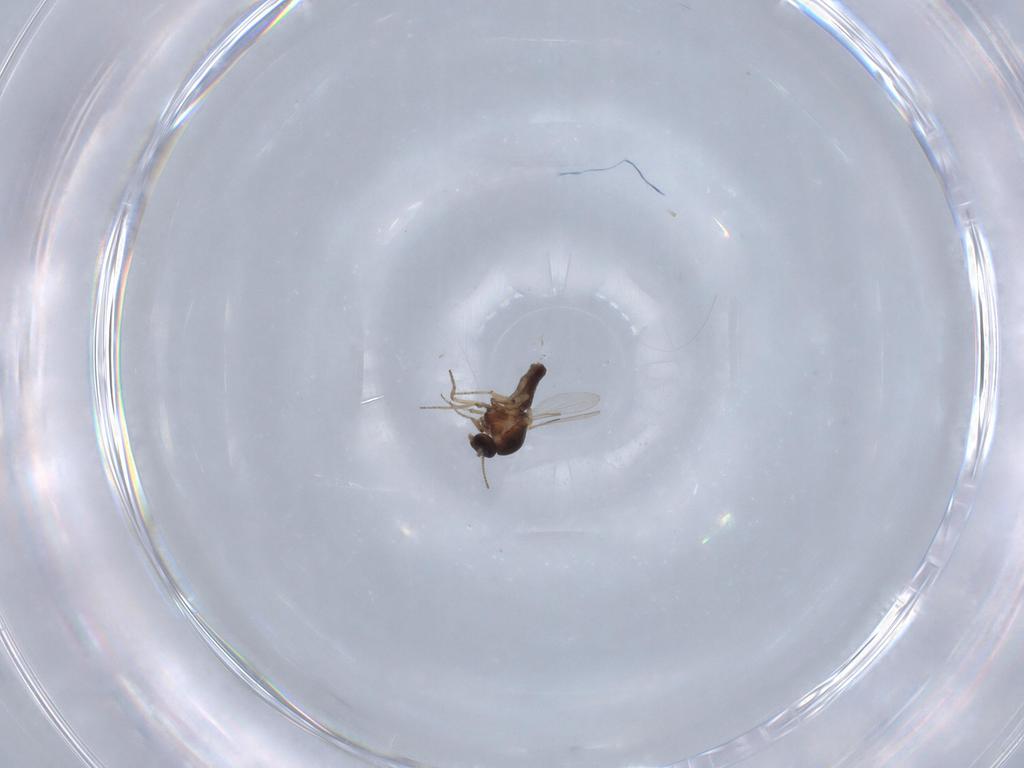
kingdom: Animalia
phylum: Arthropoda
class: Insecta
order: Diptera
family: Ceratopogonidae
